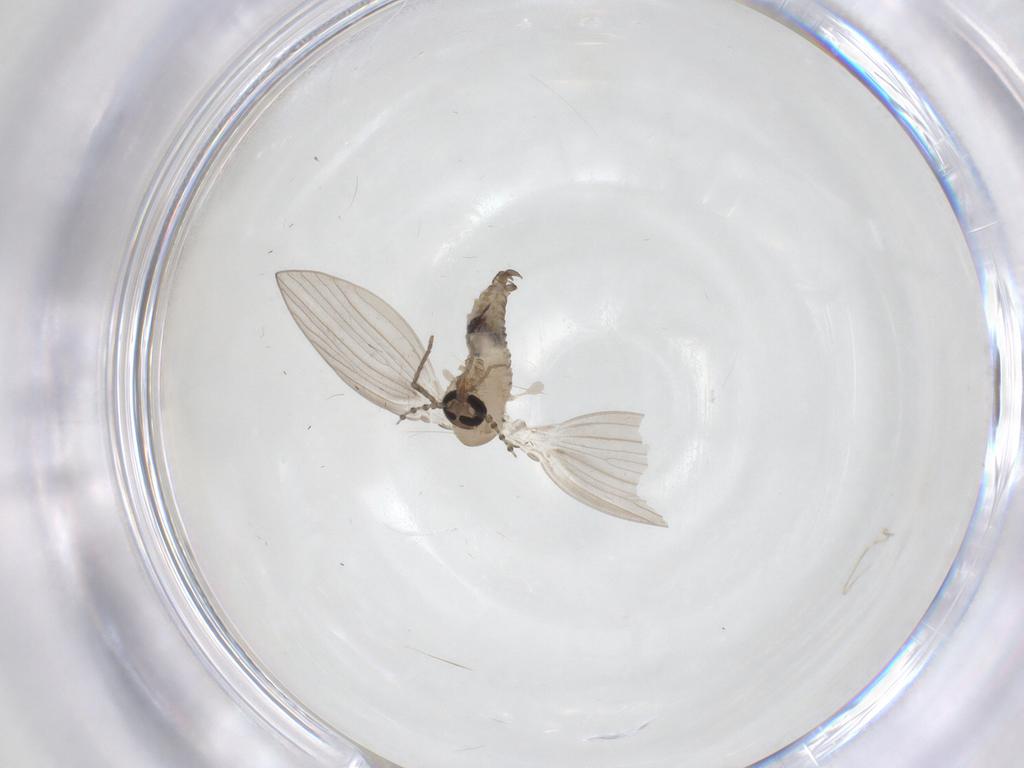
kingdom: Animalia
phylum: Arthropoda
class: Insecta
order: Diptera
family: Psychodidae
